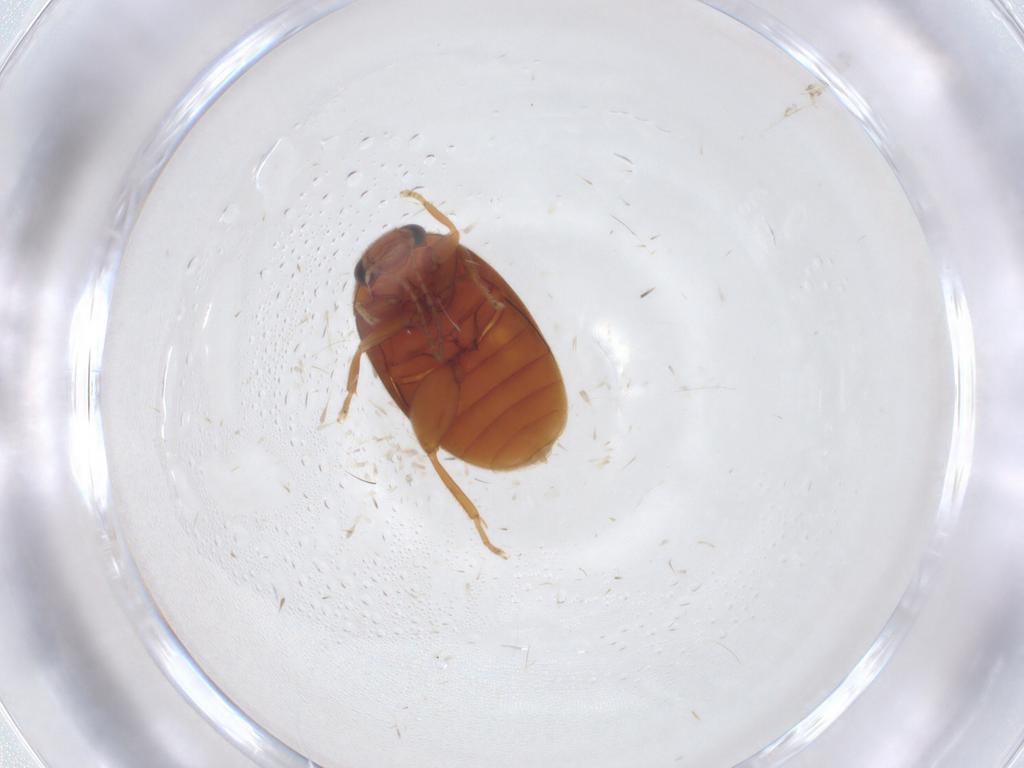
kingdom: Animalia
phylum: Arthropoda
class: Insecta
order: Coleoptera
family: Scirtidae
